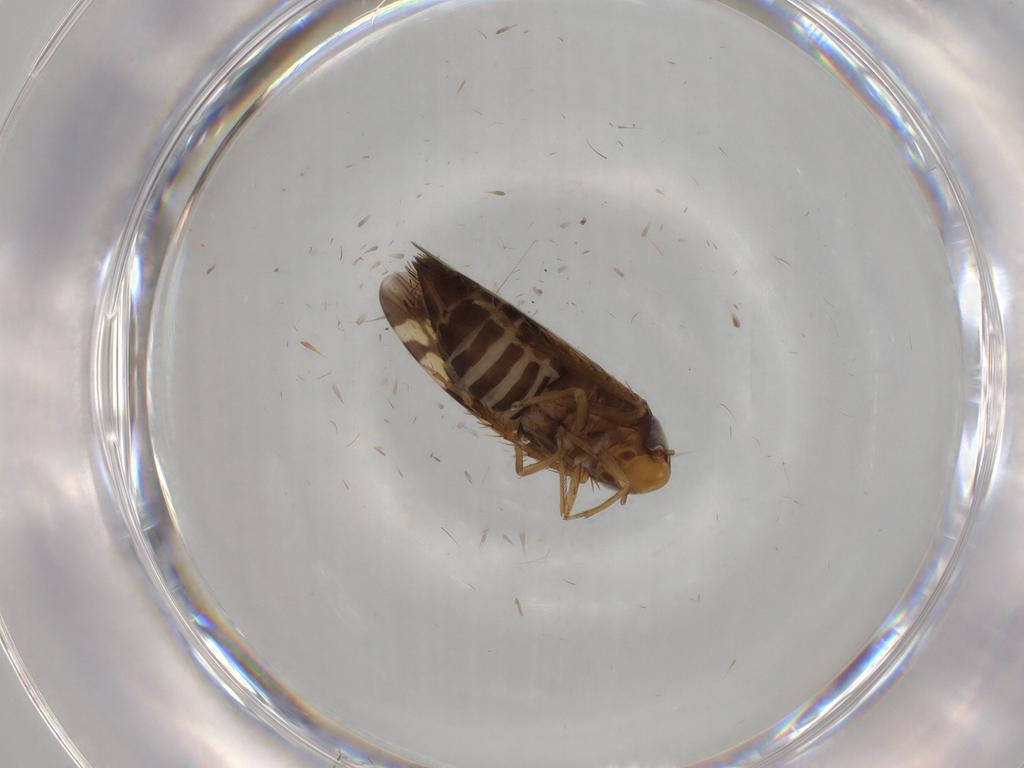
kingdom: Animalia
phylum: Arthropoda
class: Insecta
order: Hemiptera
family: Cicadellidae
